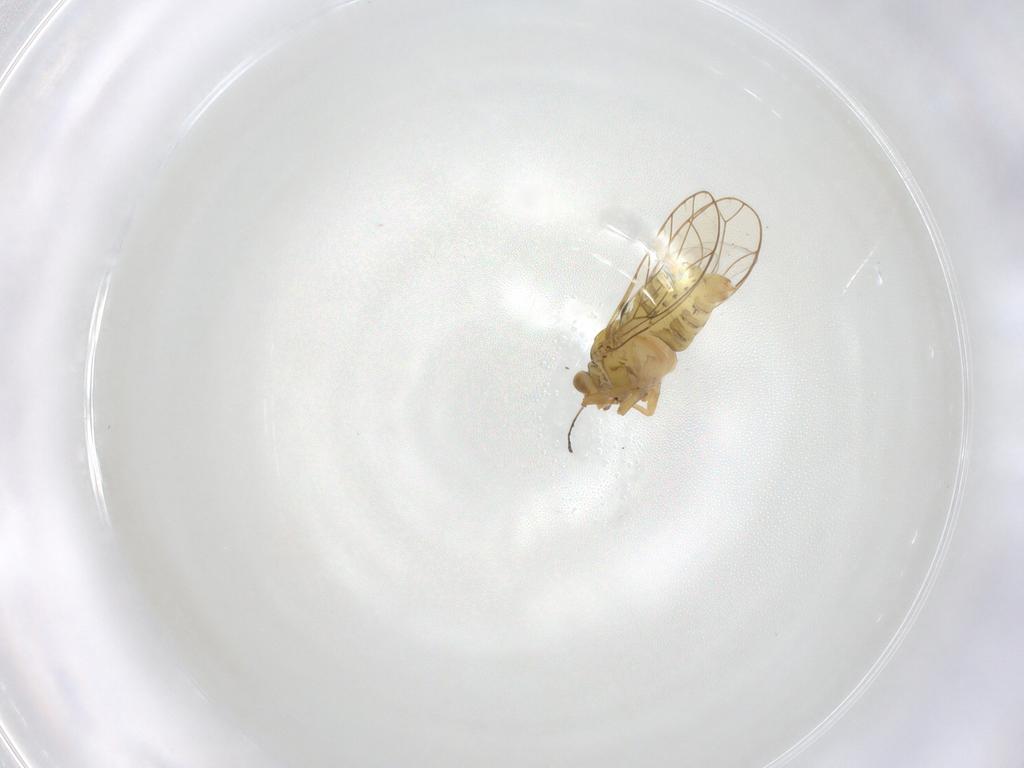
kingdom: Animalia
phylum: Arthropoda
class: Insecta
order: Hemiptera
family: Psylloidea_incertae_sedis
